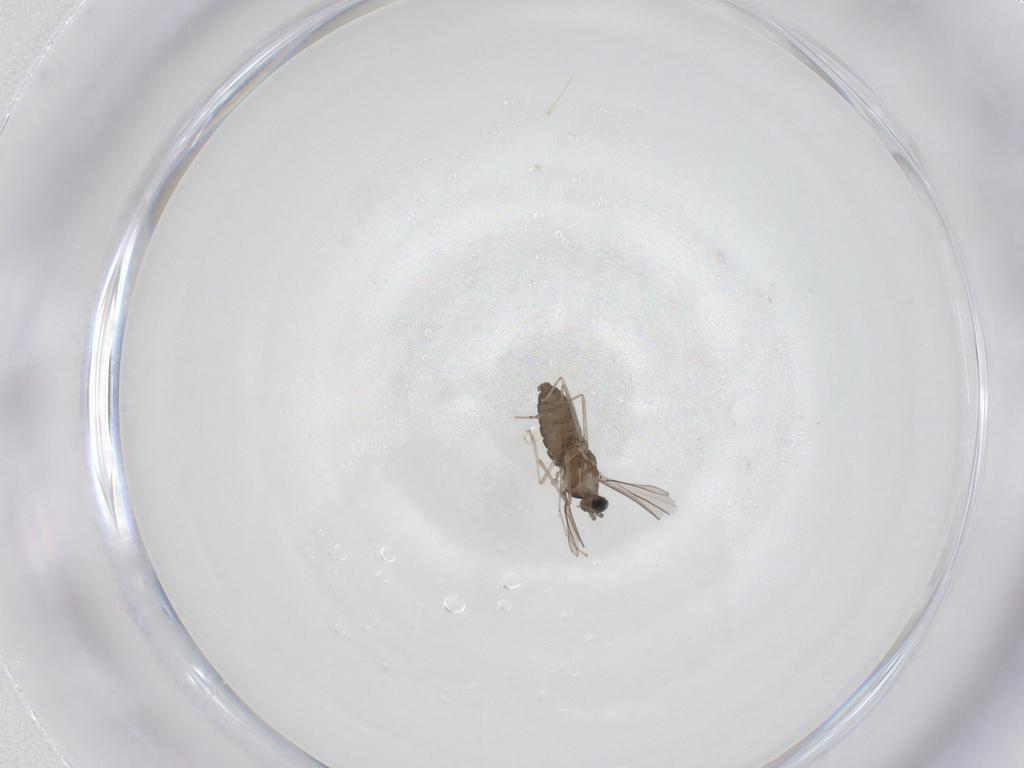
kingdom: Animalia
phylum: Arthropoda
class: Insecta
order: Diptera
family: Cecidomyiidae
